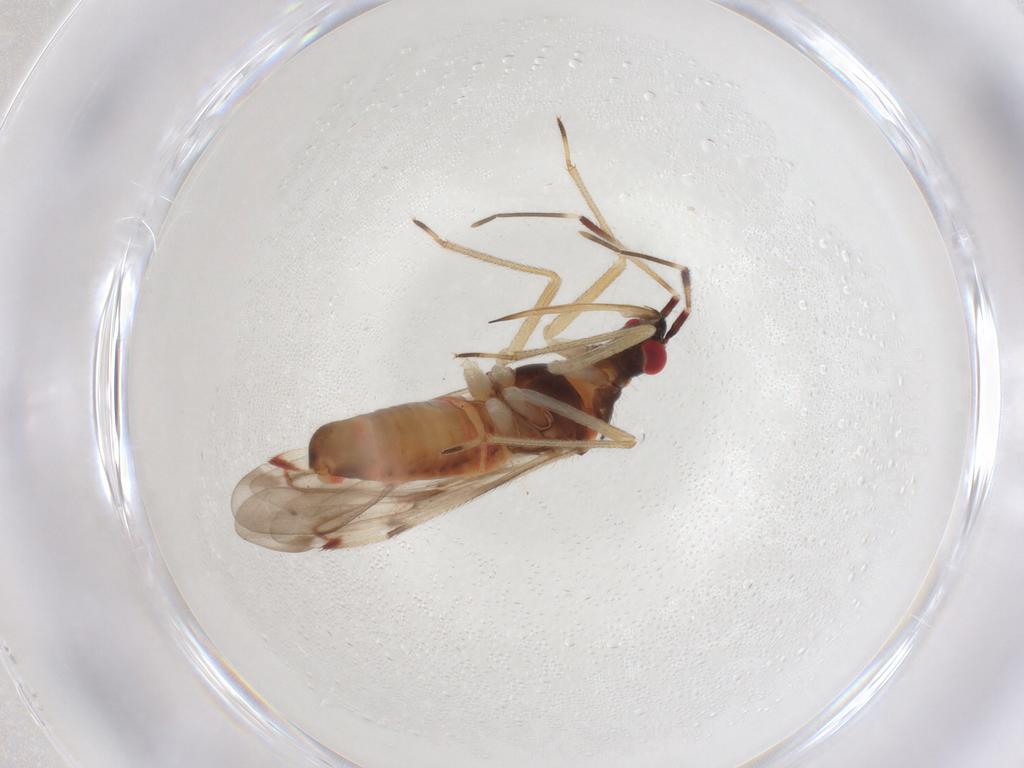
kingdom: Animalia
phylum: Arthropoda
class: Insecta
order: Hemiptera
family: Miridae
